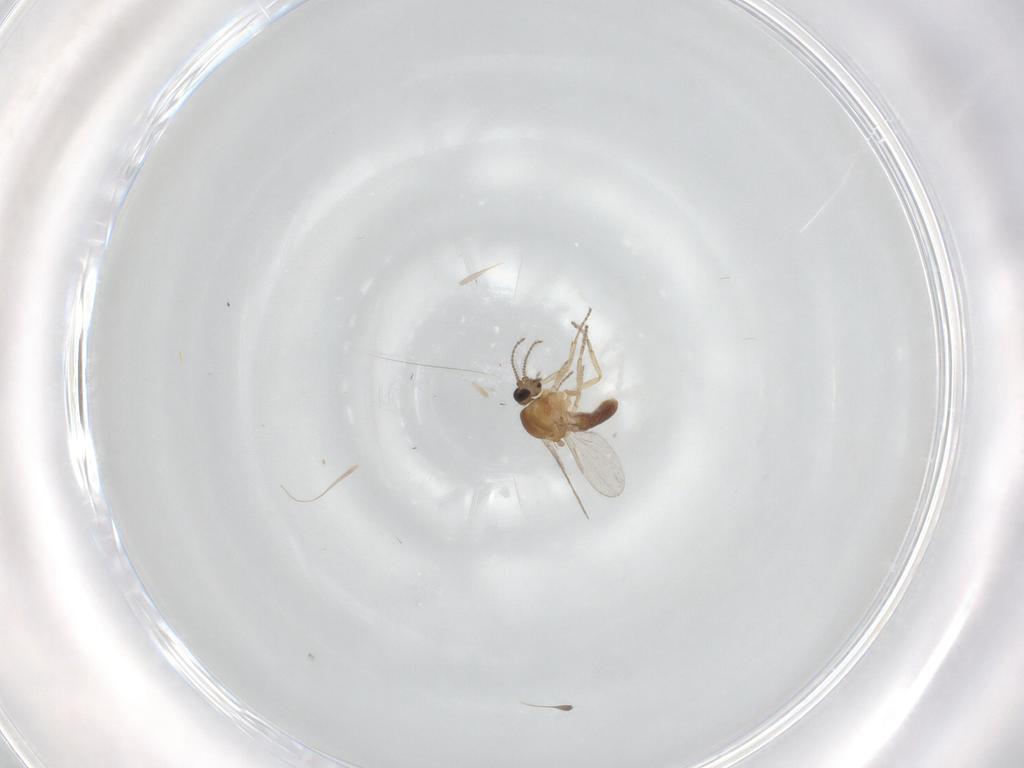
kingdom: Animalia
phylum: Arthropoda
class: Insecta
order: Diptera
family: Ceratopogonidae
